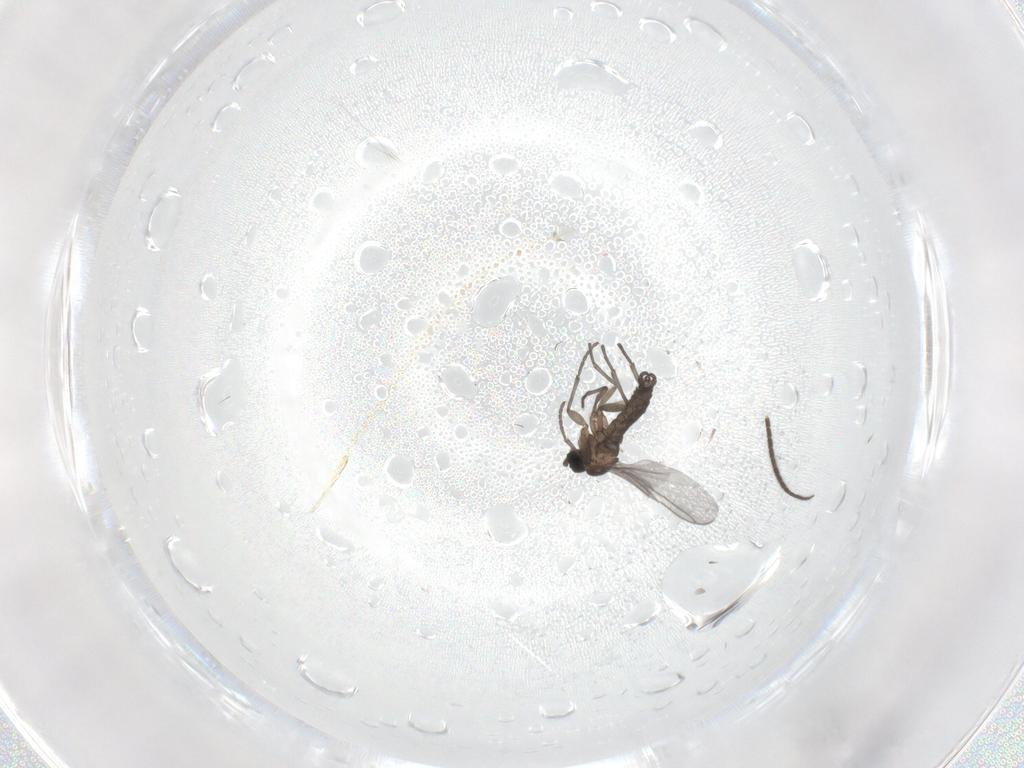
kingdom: Animalia
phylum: Arthropoda
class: Insecta
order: Diptera
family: Sciaridae
